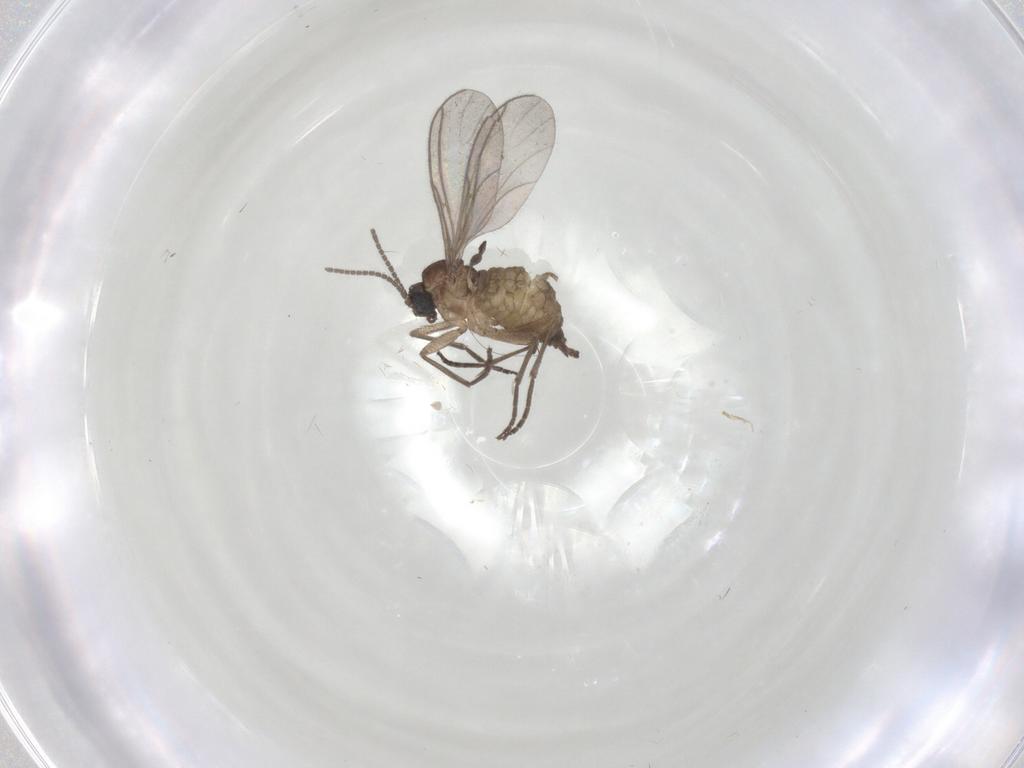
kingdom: Animalia
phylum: Arthropoda
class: Insecta
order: Diptera
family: Sciaridae
